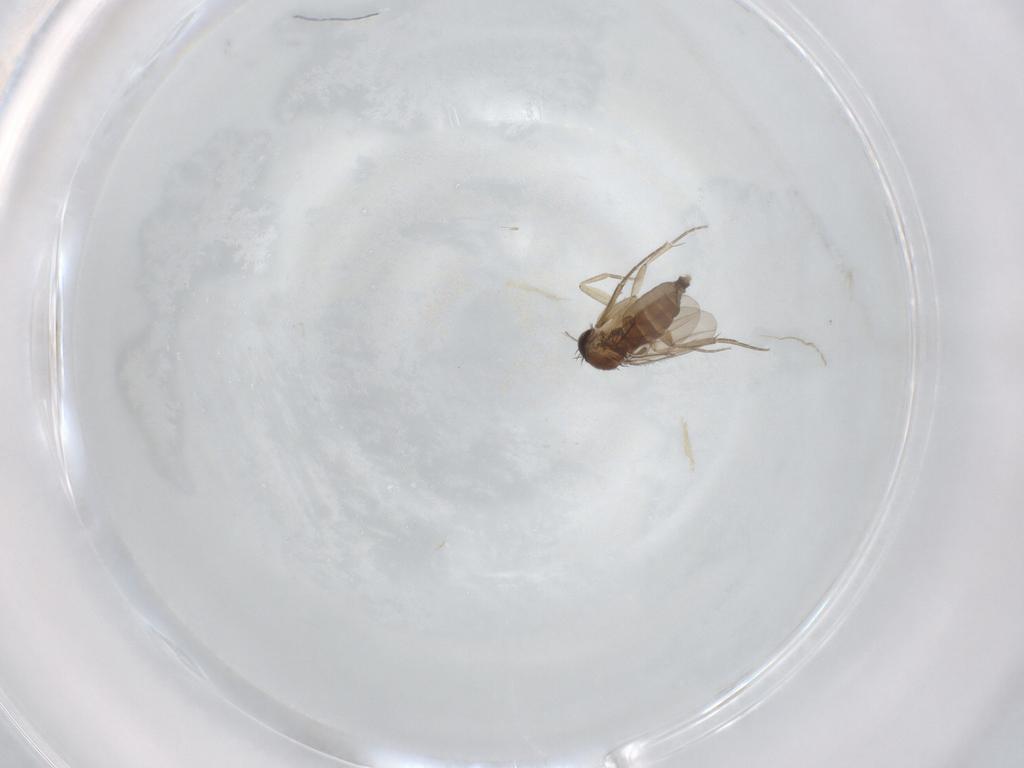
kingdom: Animalia
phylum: Arthropoda
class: Insecta
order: Diptera
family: Phoridae
